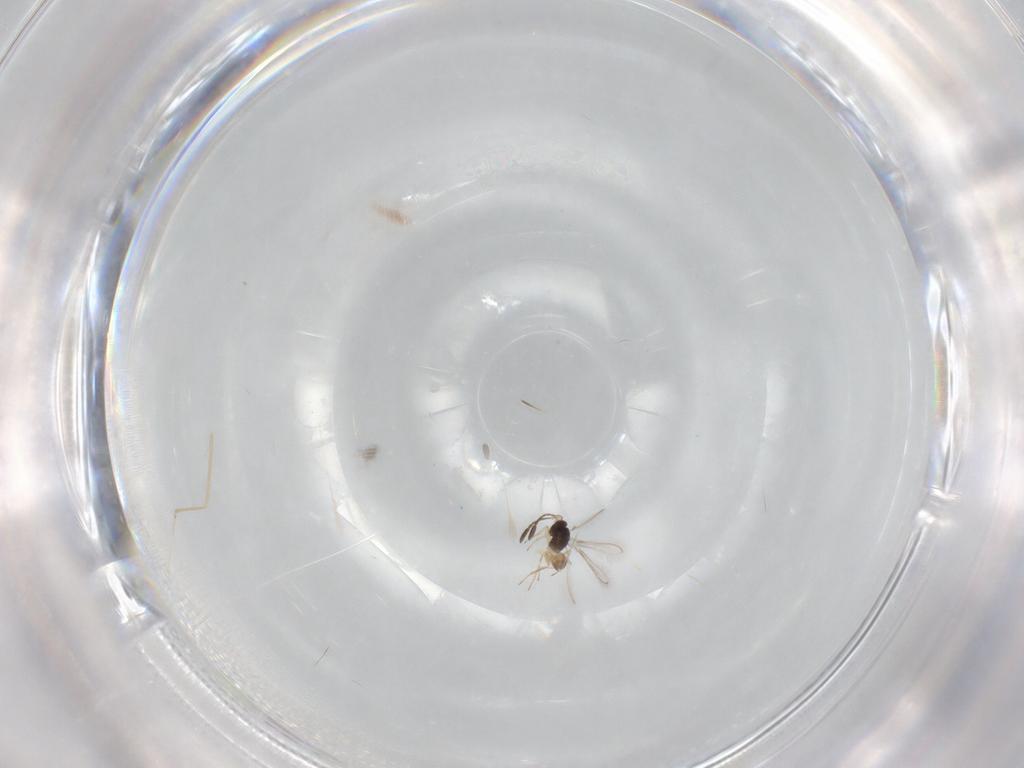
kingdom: Animalia
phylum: Arthropoda
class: Insecta
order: Hymenoptera
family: Mymaridae
